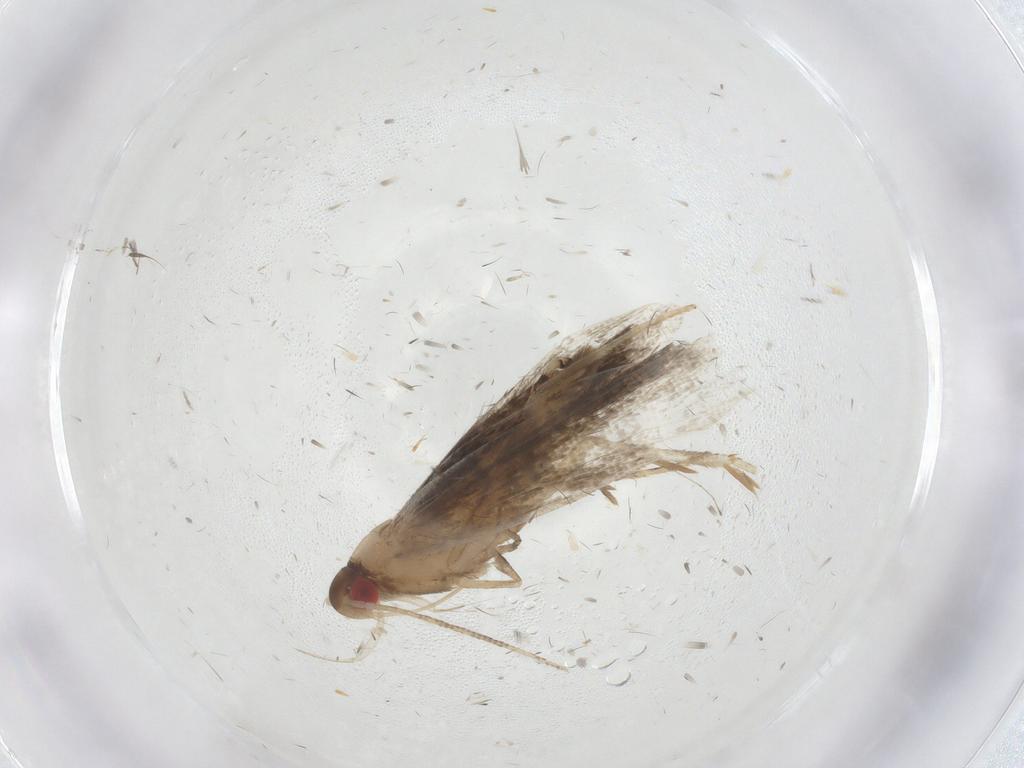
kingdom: Animalia
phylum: Arthropoda
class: Insecta
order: Lepidoptera
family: Gelechiidae
